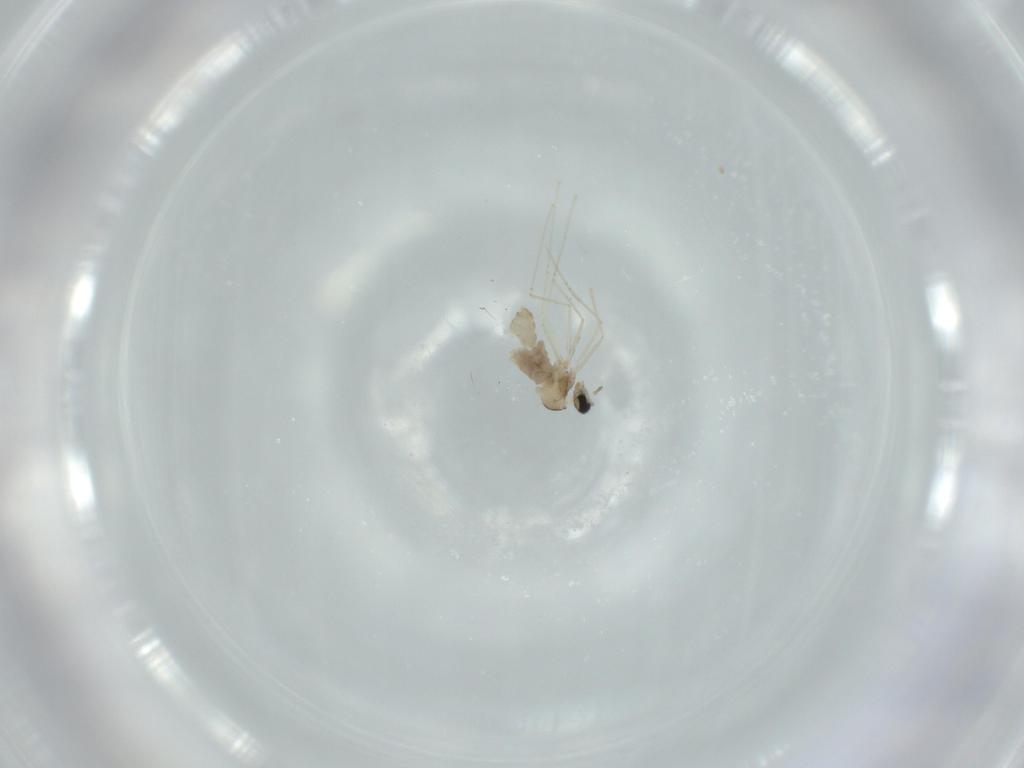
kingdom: Animalia
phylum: Arthropoda
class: Insecta
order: Diptera
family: Cecidomyiidae
